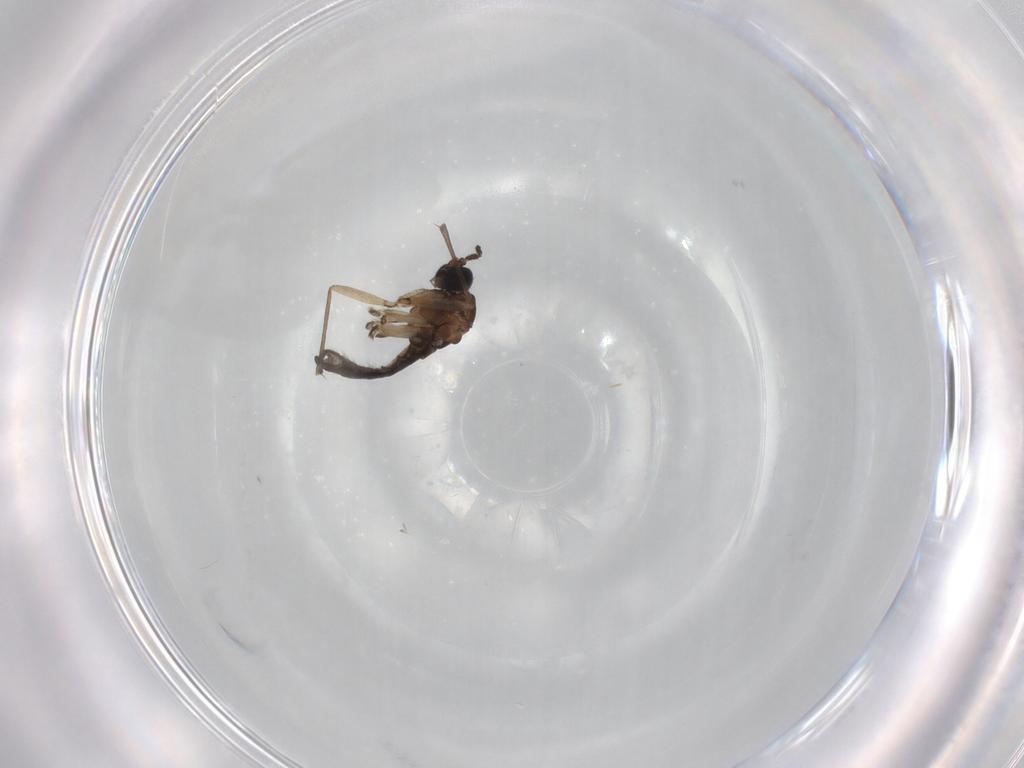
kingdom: Animalia
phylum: Arthropoda
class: Insecta
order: Diptera
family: Sciaridae
